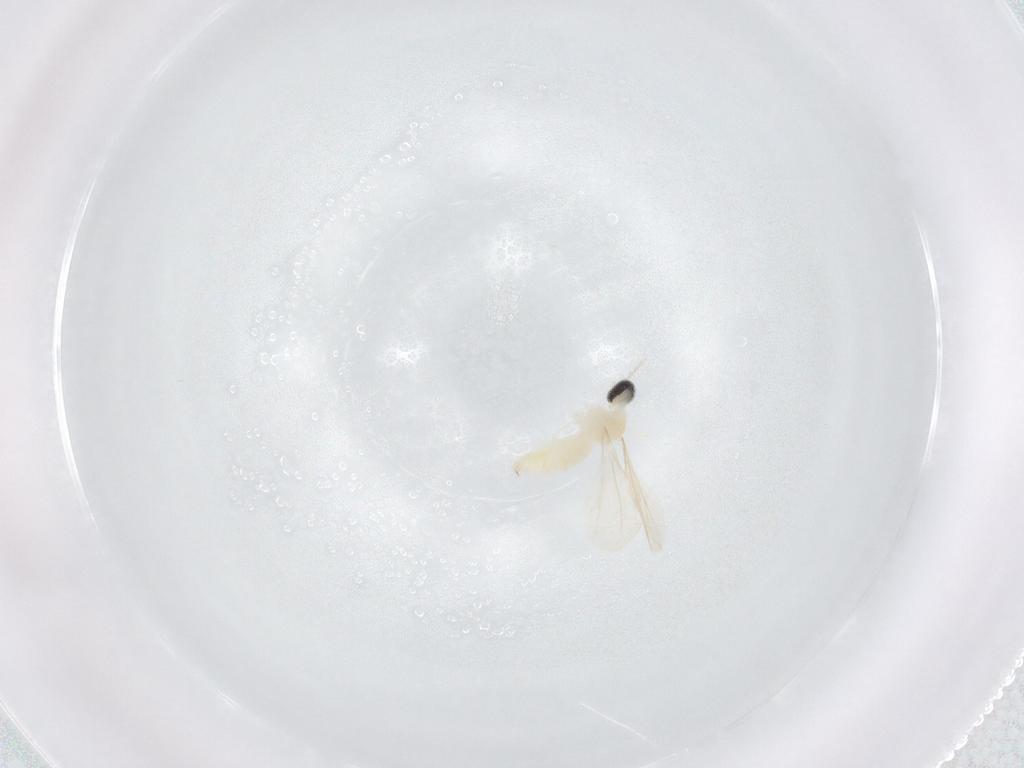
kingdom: Animalia
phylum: Arthropoda
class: Insecta
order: Diptera
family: Cecidomyiidae
